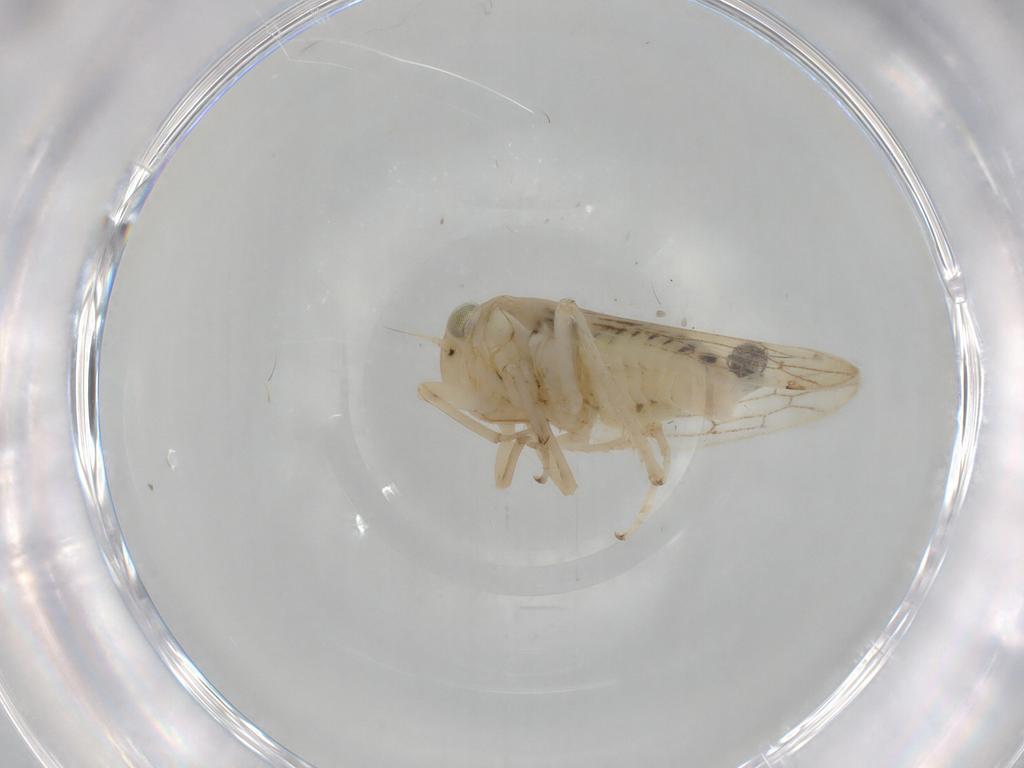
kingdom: Animalia
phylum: Arthropoda
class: Insecta
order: Hemiptera
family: Cicadellidae
